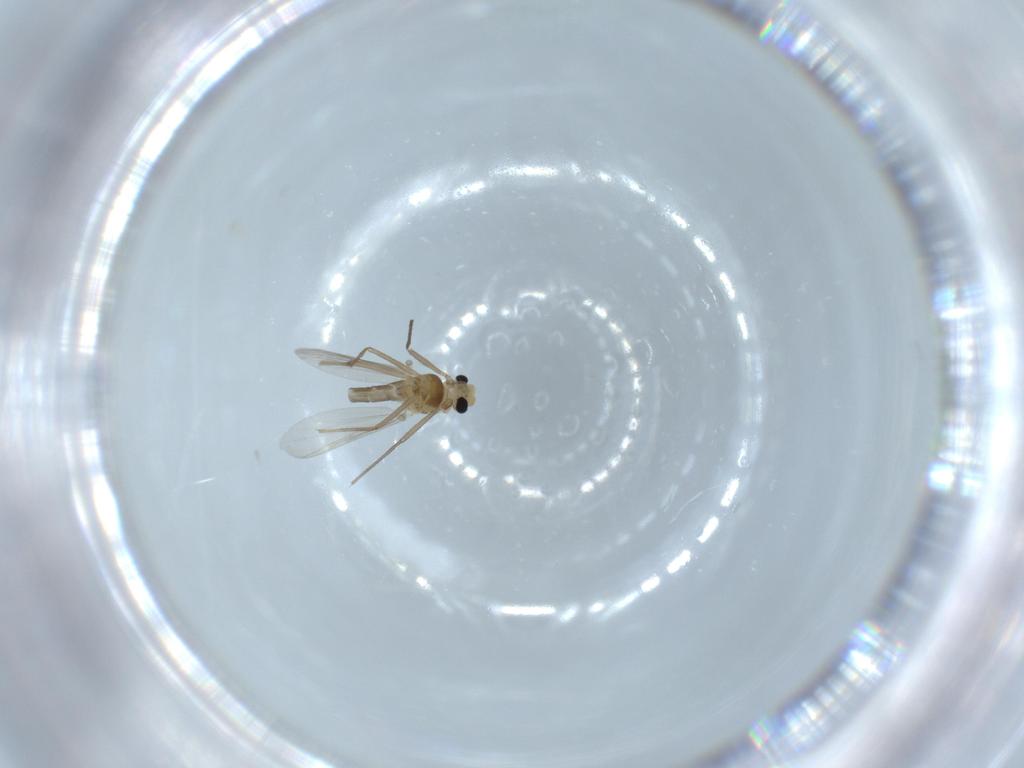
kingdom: Animalia
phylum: Arthropoda
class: Insecta
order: Diptera
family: Chironomidae
